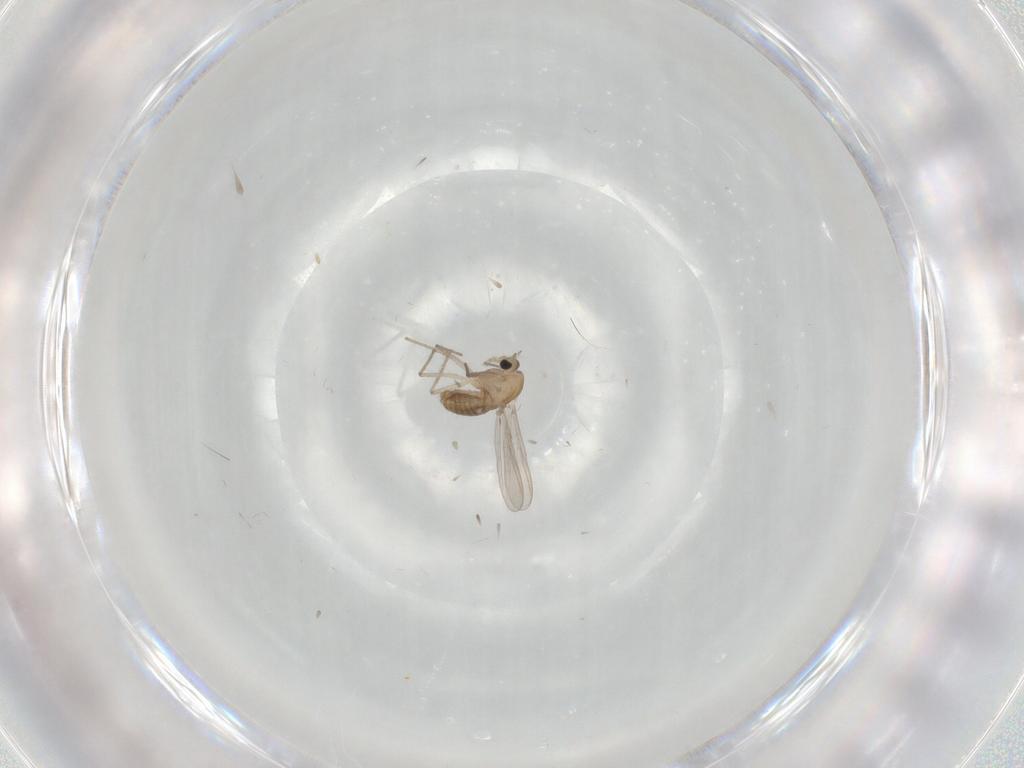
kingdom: Animalia
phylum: Arthropoda
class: Insecta
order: Diptera
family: Chironomidae
